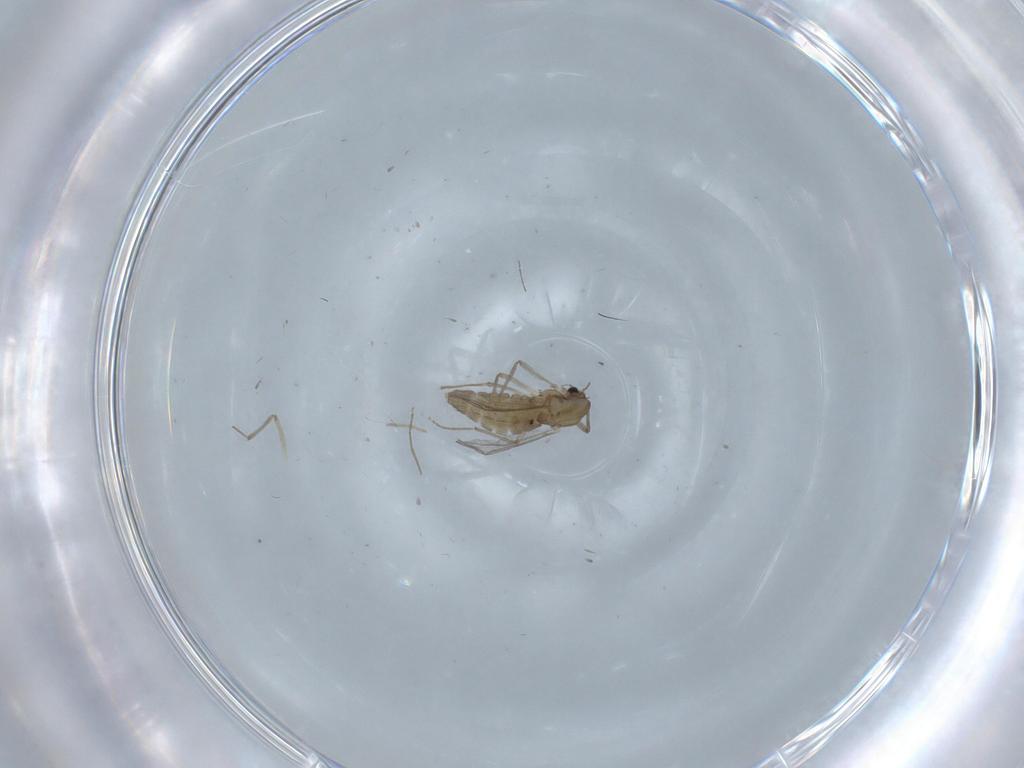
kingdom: Animalia
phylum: Arthropoda
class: Insecta
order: Diptera
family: Chironomidae
